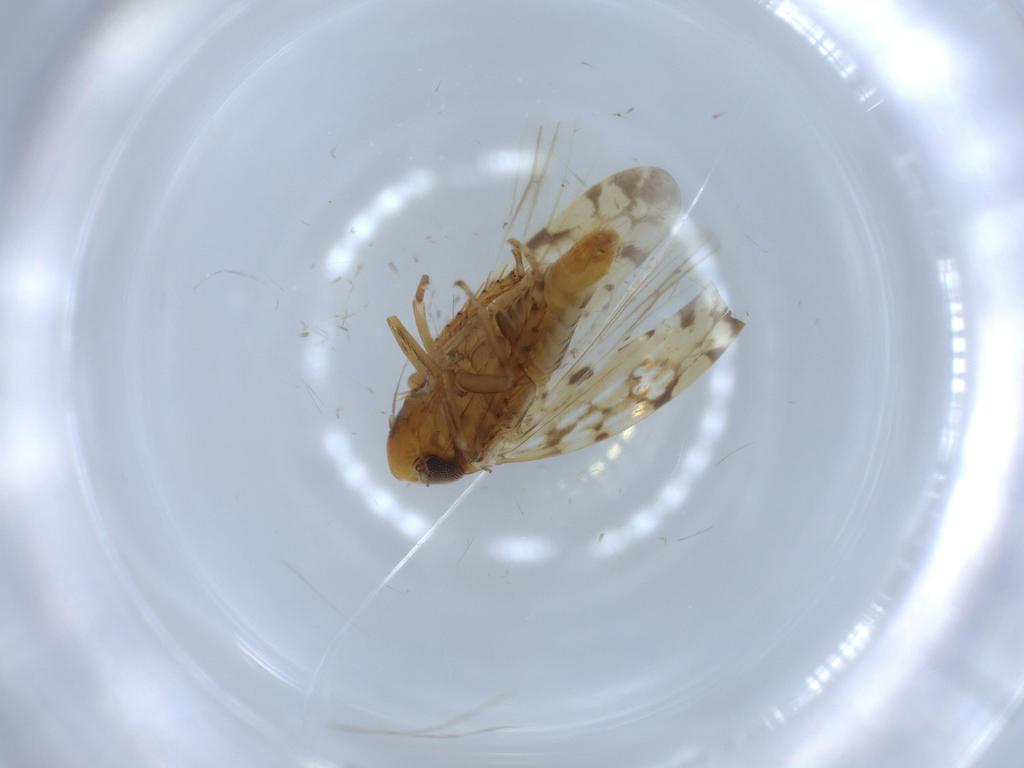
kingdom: Animalia
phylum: Arthropoda
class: Insecta
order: Hemiptera
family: Cicadellidae
